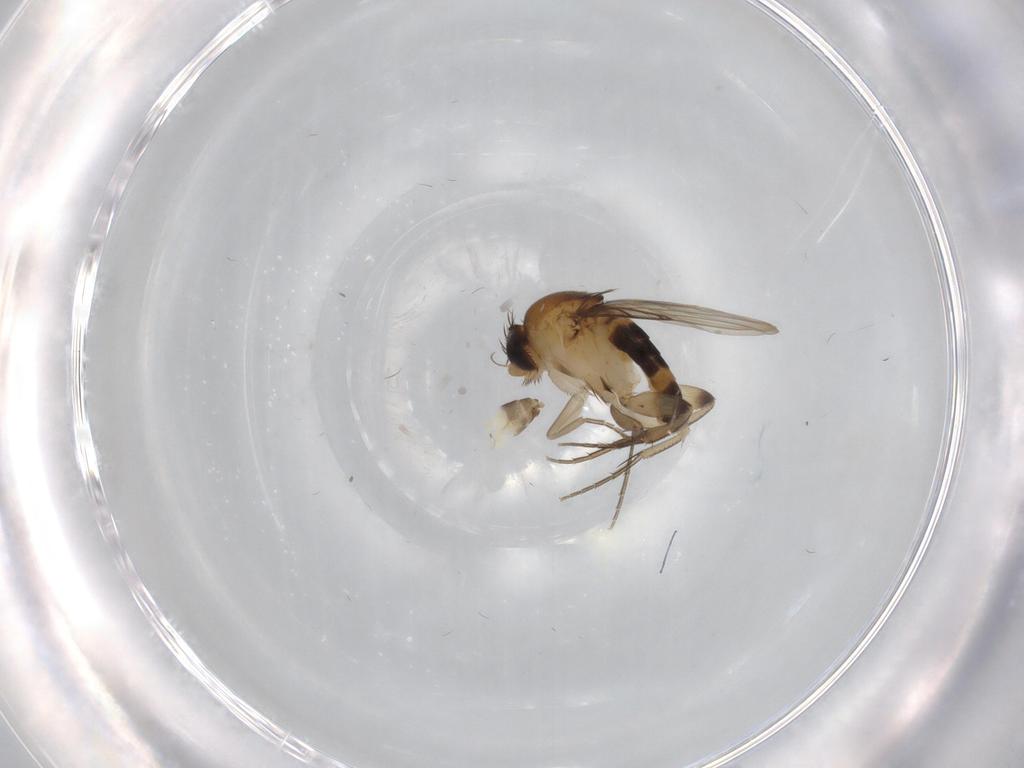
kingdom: Animalia
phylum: Arthropoda
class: Insecta
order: Diptera
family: Phoridae
